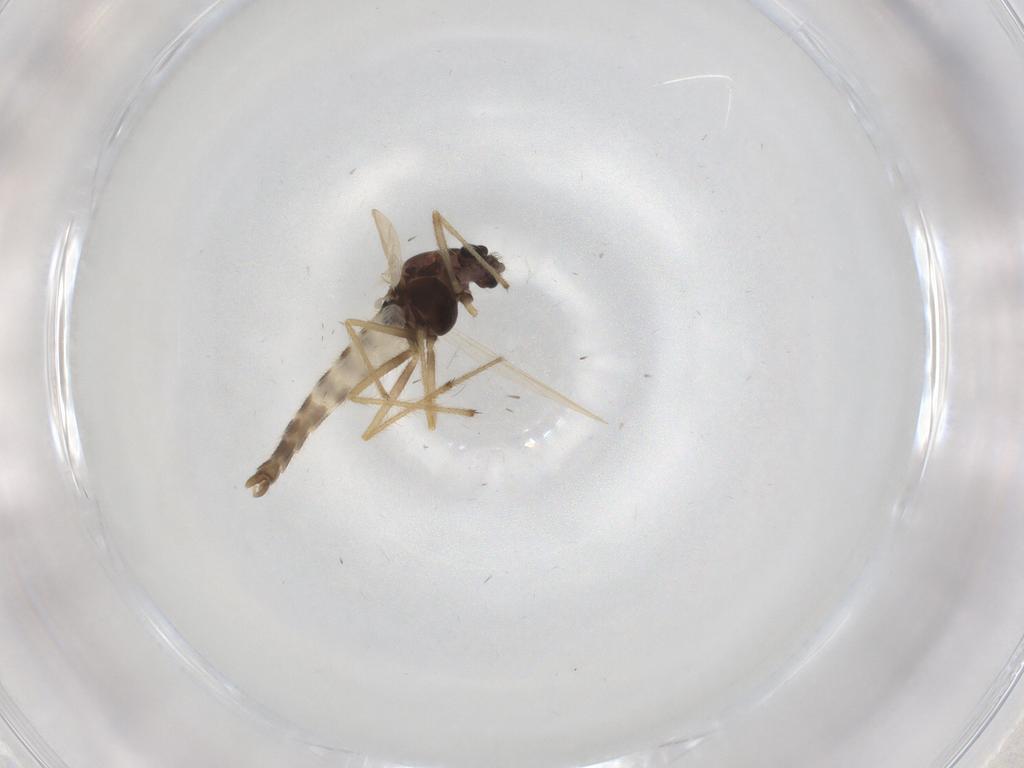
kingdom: Animalia
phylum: Arthropoda
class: Insecta
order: Diptera
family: Chironomidae
